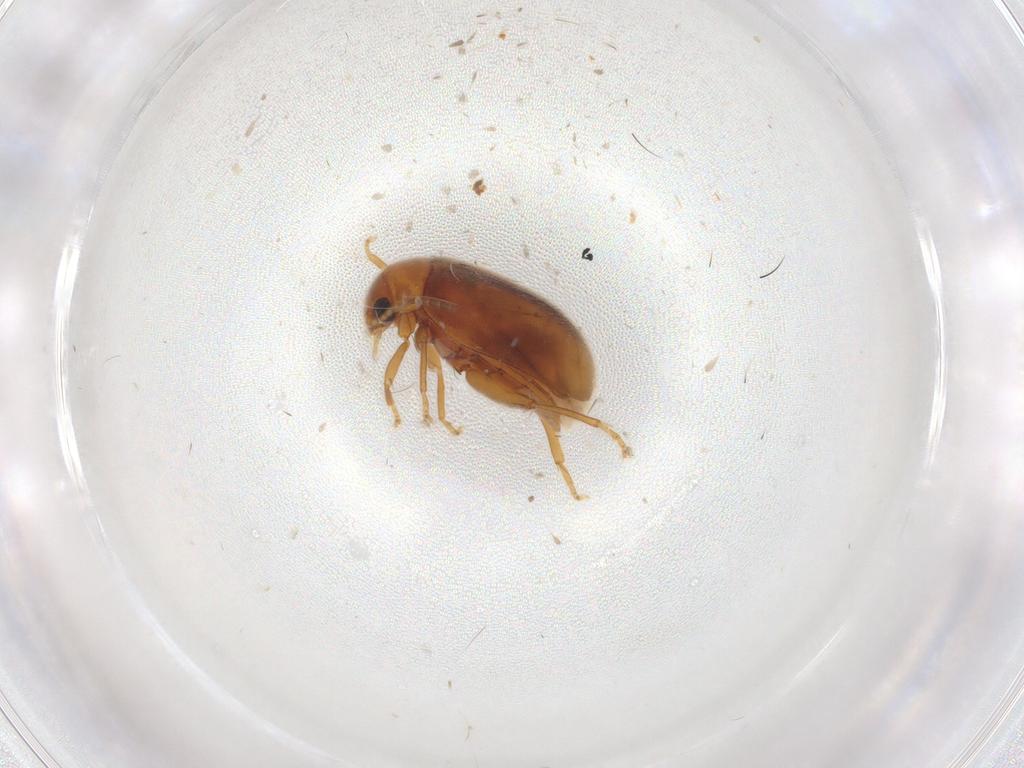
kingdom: Animalia
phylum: Arthropoda
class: Insecta
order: Coleoptera
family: Scirtidae
